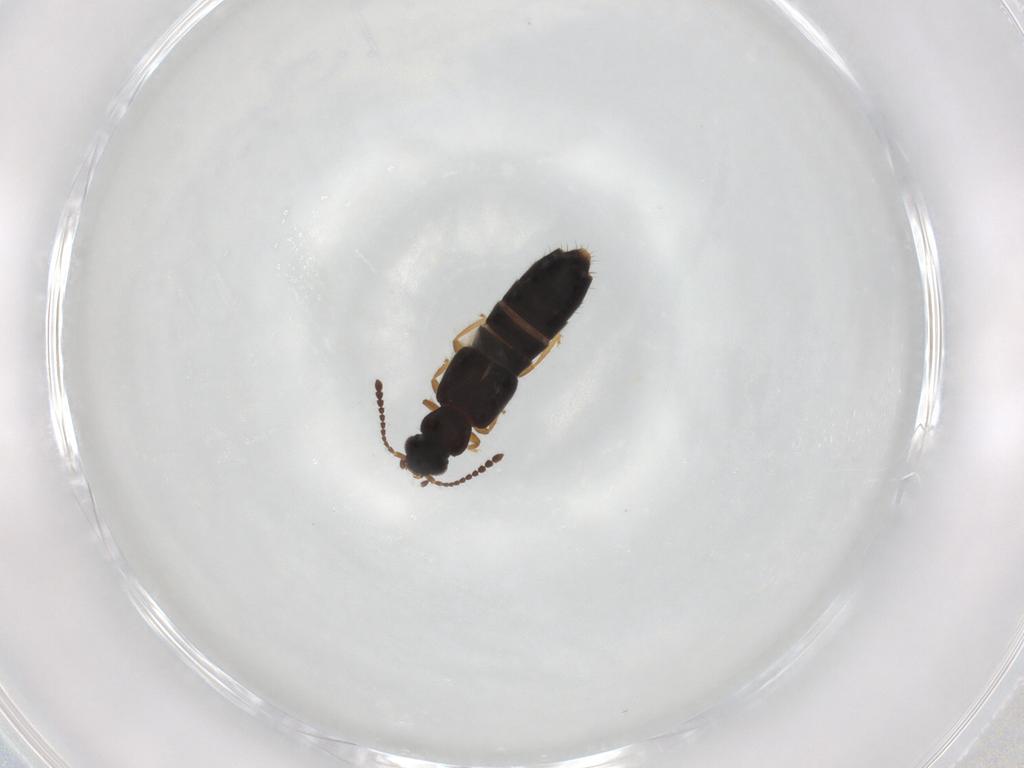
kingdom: Animalia
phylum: Arthropoda
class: Insecta
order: Coleoptera
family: Staphylinidae
